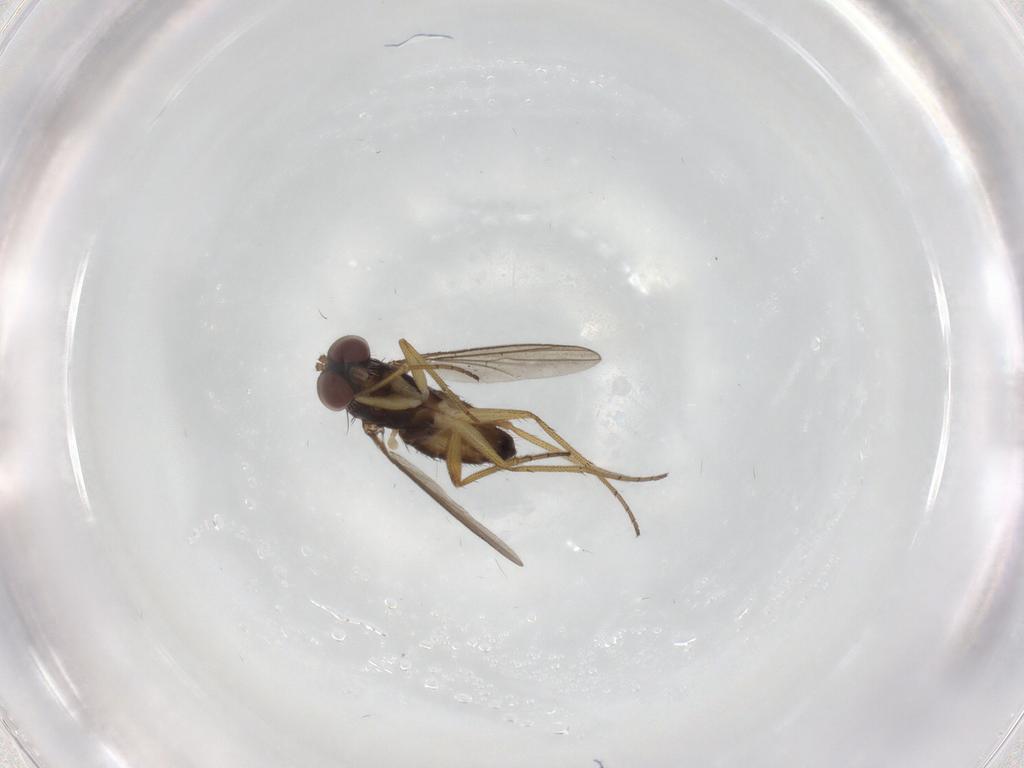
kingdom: Animalia
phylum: Arthropoda
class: Insecta
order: Diptera
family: Dolichopodidae
